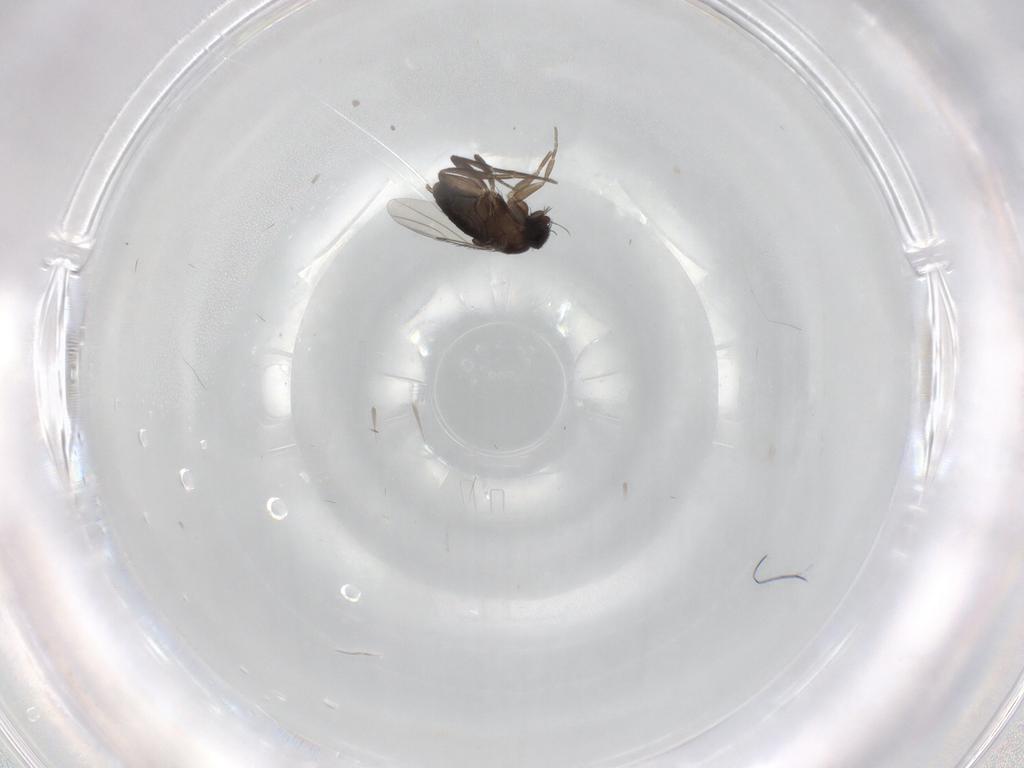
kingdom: Animalia
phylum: Arthropoda
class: Insecta
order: Diptera
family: Phoridae
